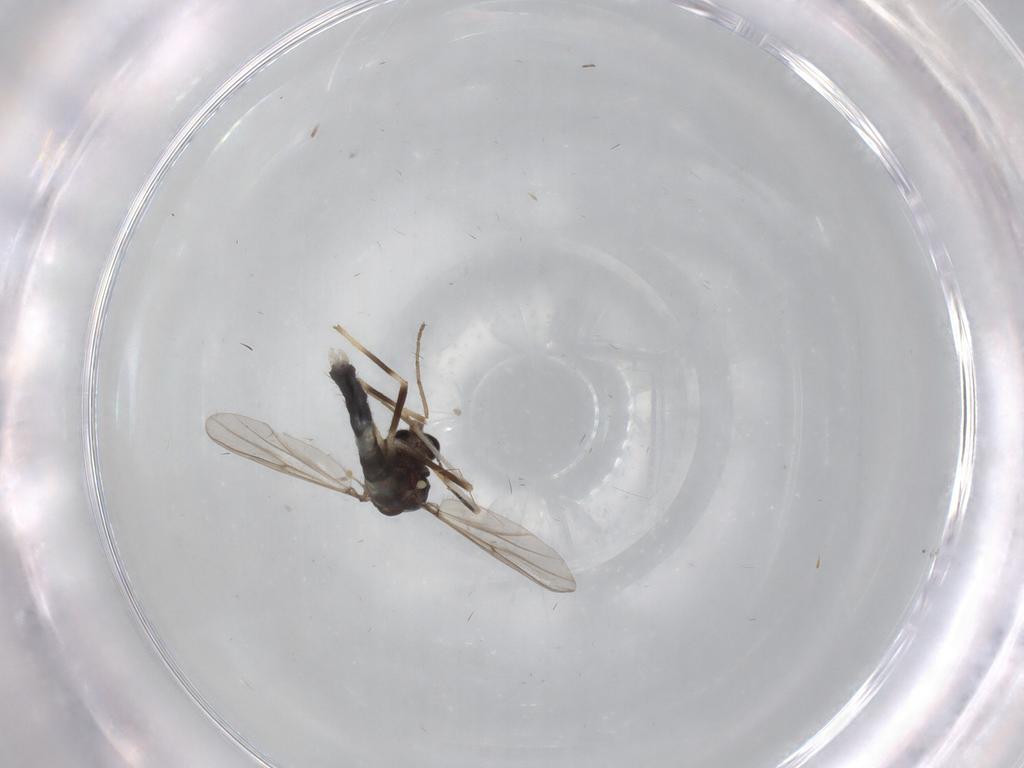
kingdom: Animalia
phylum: Arthropoda
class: Insecta
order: Diptera
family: Chironomidae
